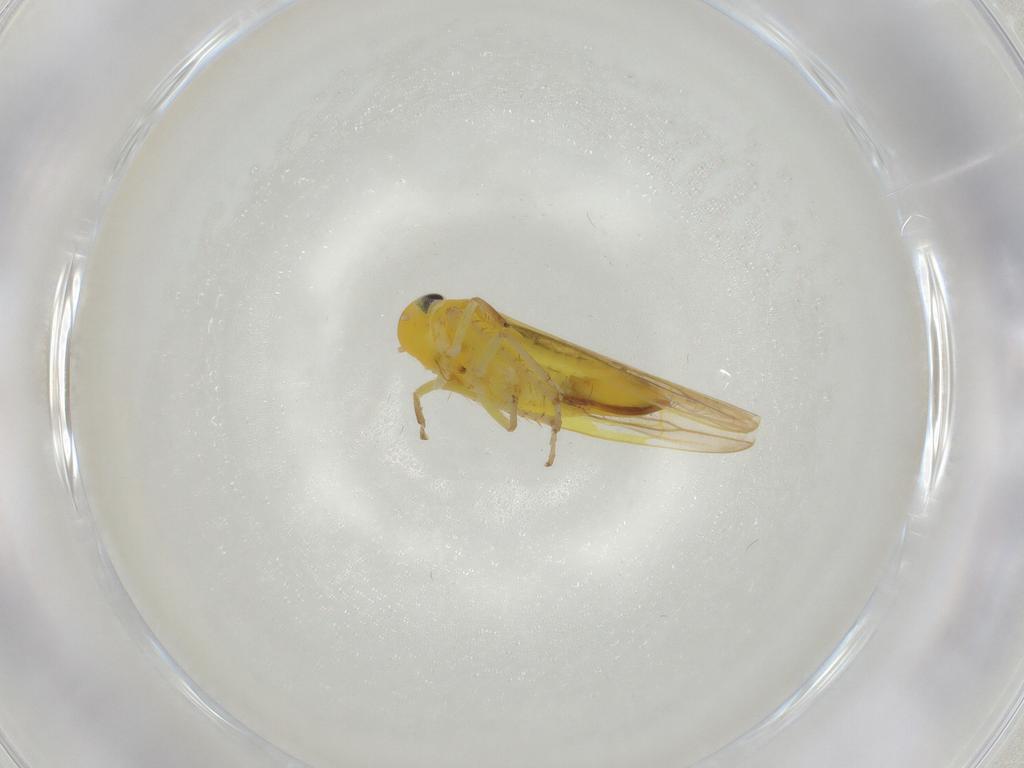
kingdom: Animalia
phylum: Arthropoda
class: Insecta
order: Hemiptera
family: Cicadellidae
